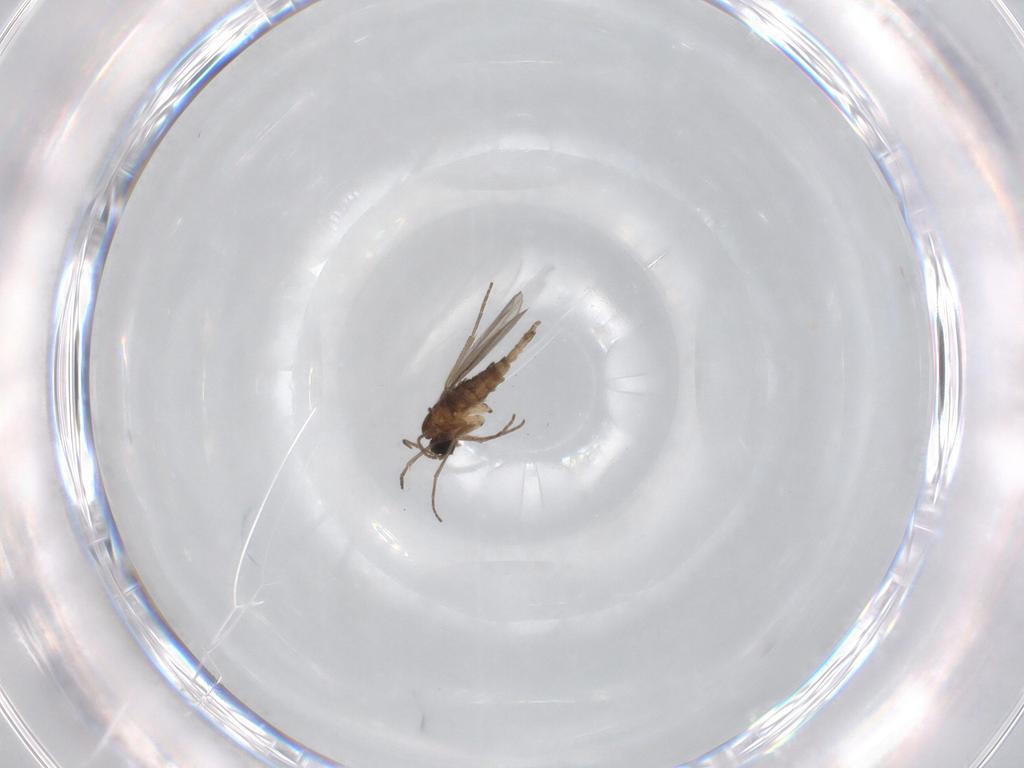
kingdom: Animalia
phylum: Arthropoda
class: Insecta
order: Diptera
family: Sciaridae
